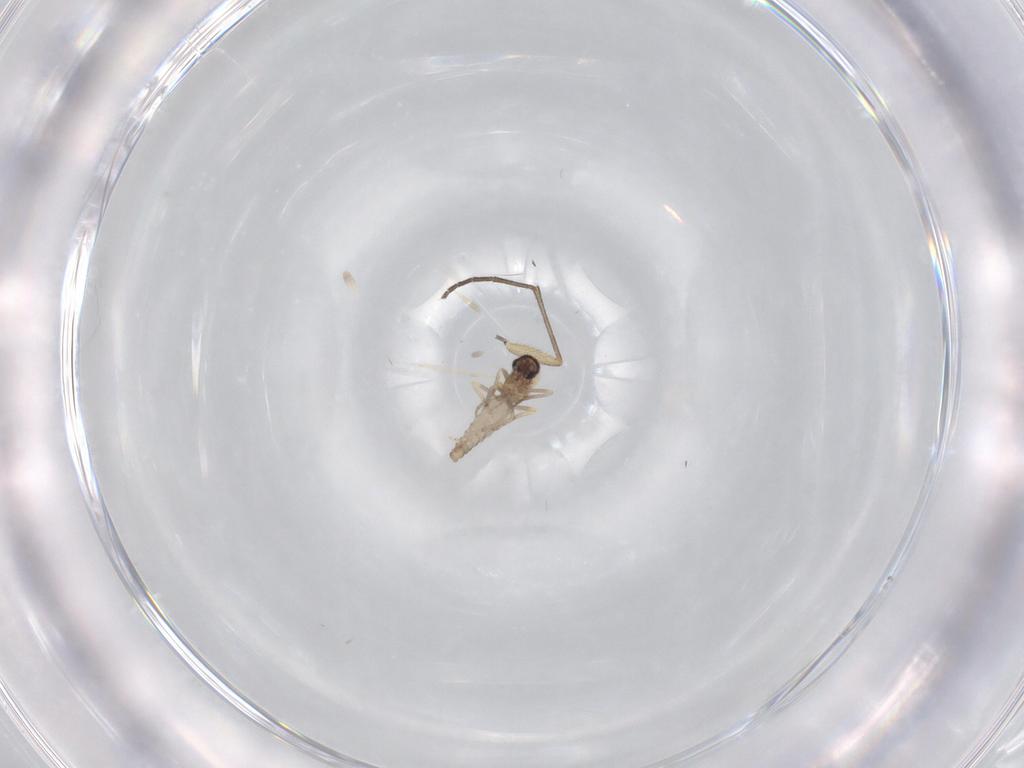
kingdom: Animalia
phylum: Arthropoda
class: Insecta
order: Diptera
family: Ceratopogonidae
